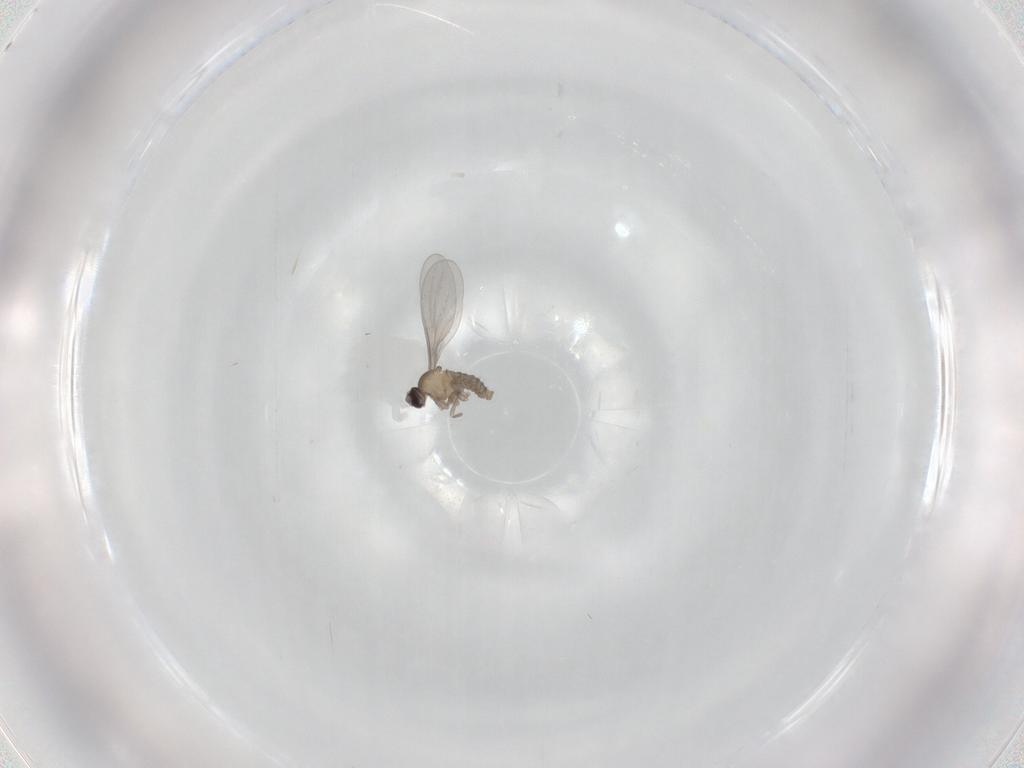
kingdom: Animalia
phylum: Arthropoda
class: Insecta
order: Diptera
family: Cecidomyiidae
